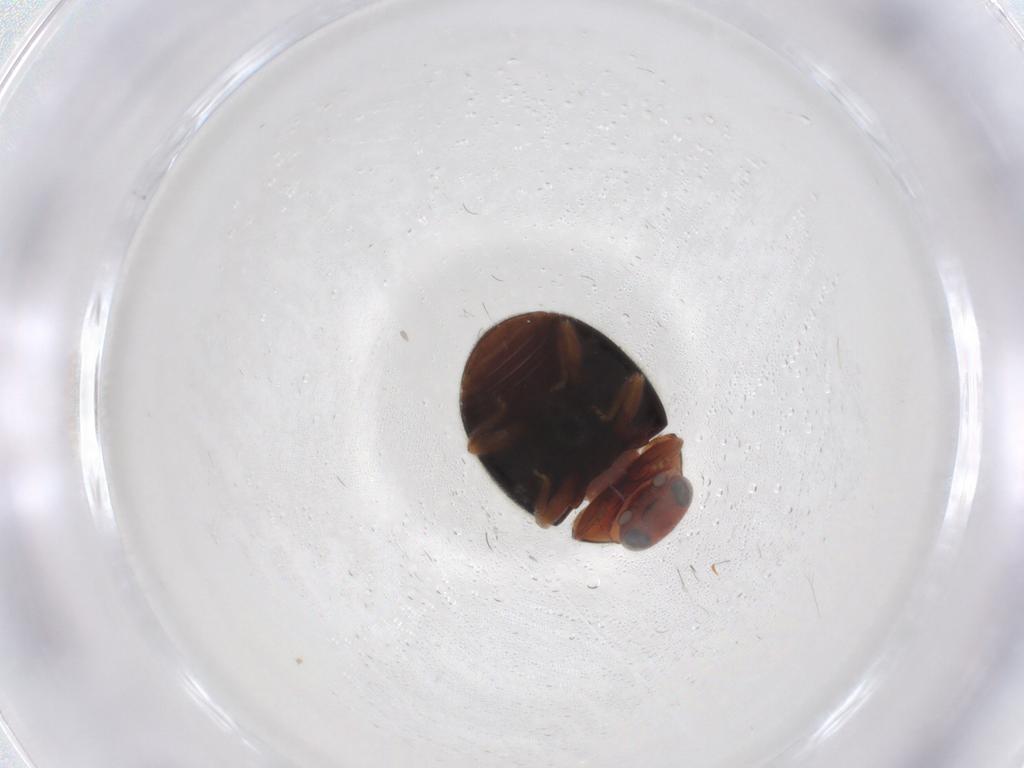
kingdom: Animalia
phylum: Arthropoda
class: Insecta
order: Coleoptera
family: Coccinellidae
